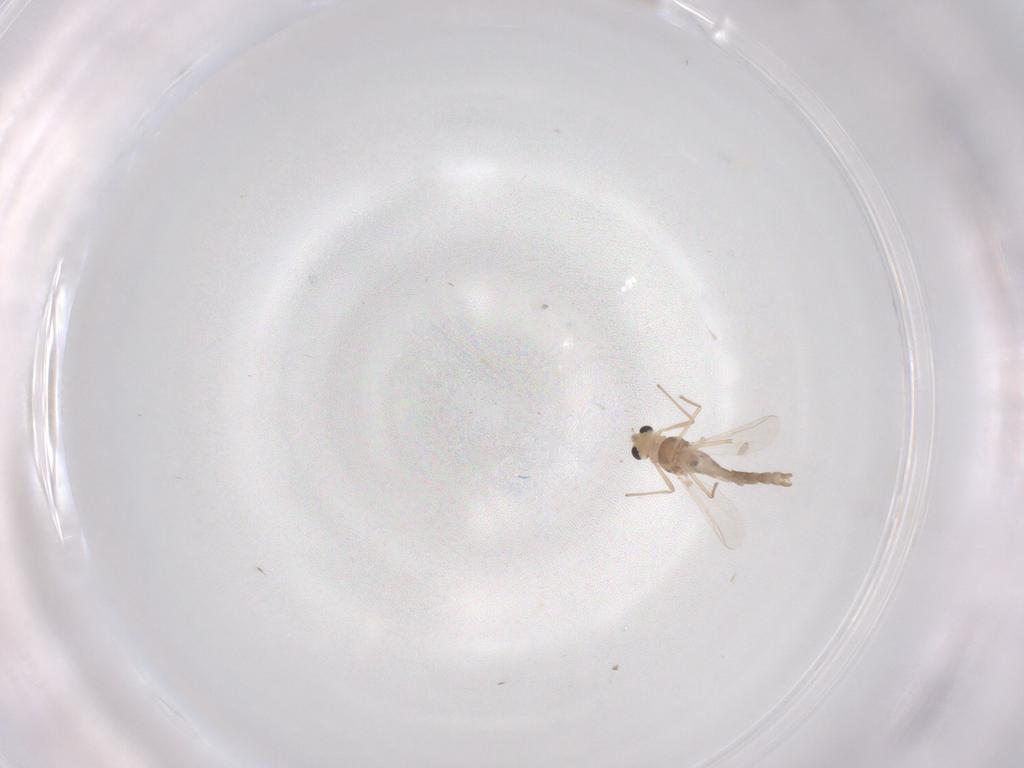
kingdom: Animalia
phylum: Arthropoda
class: Insecta
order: Diptera
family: Chironomidae
